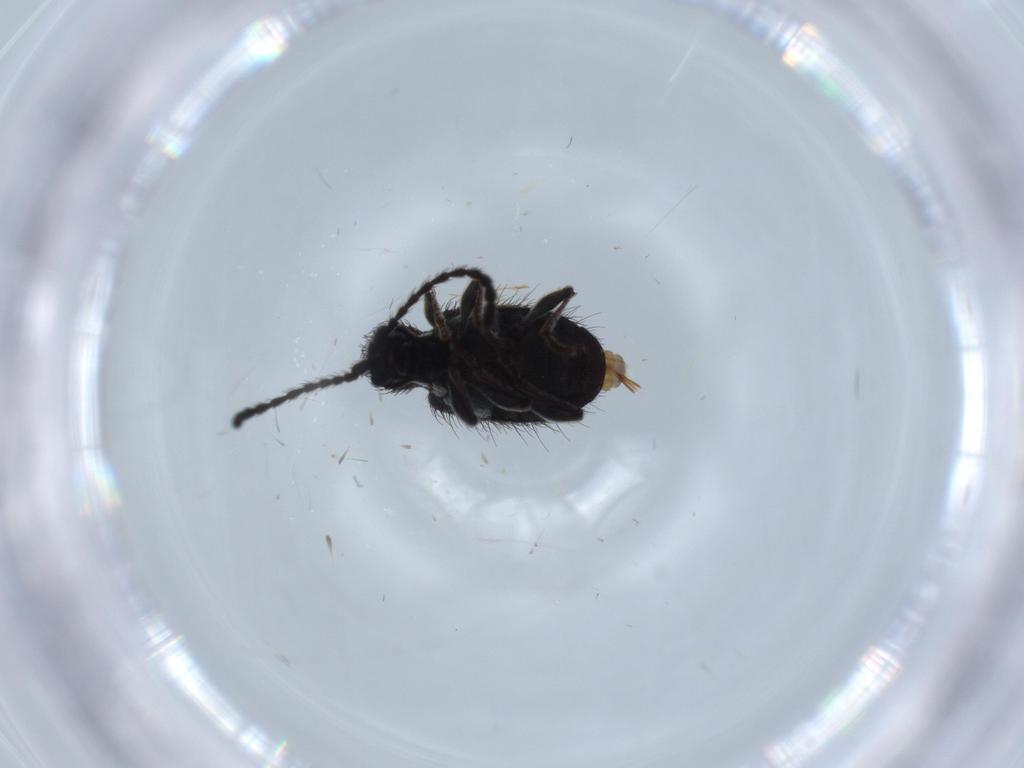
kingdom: Animalia
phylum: Arthropoda
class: Insecta
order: Coleoptera
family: Ptinidae
